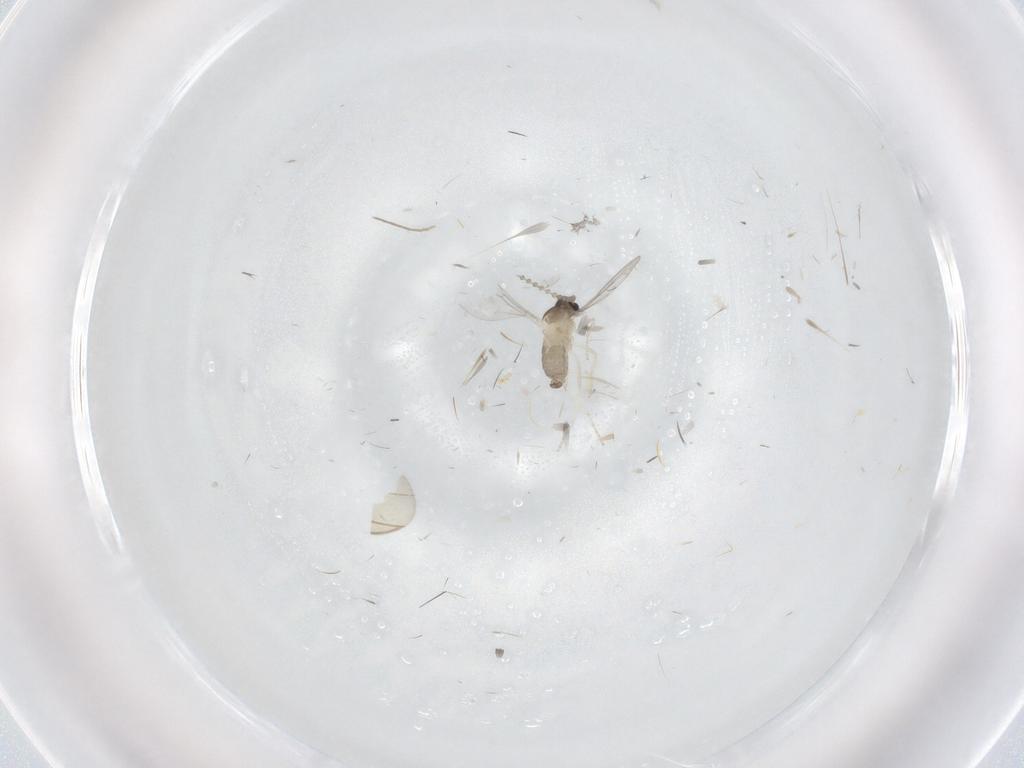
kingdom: Animalia
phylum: Arthropoda
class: Insecta
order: Diptera
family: Cecidomyiidae
